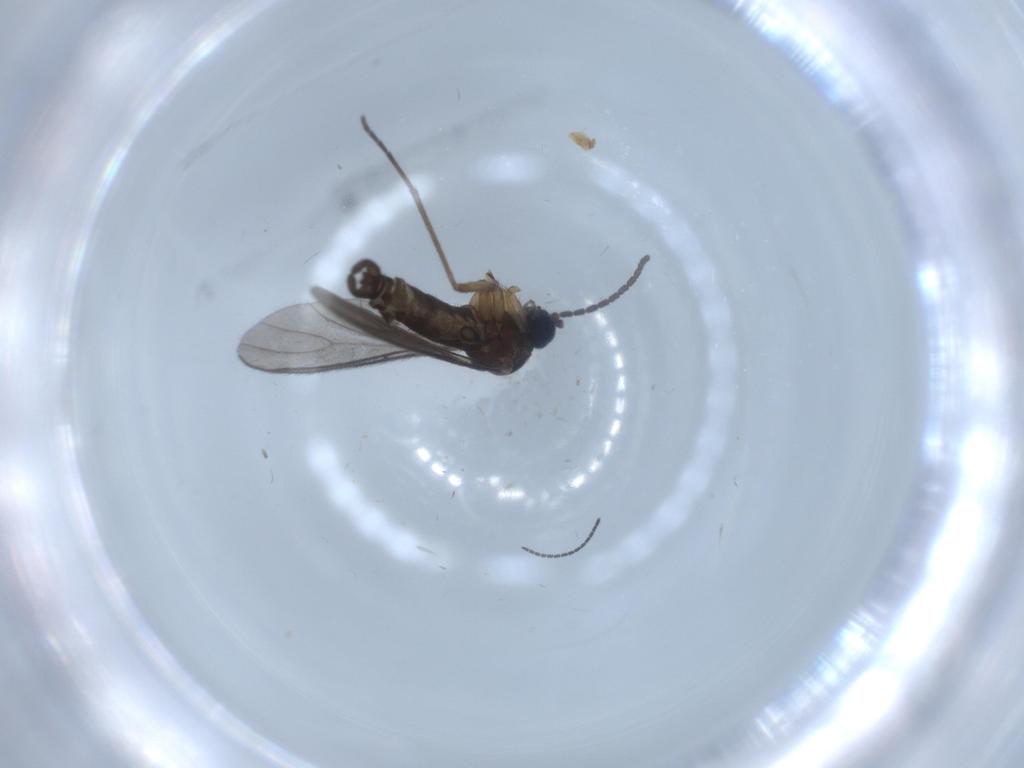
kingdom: Animalia
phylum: Arthropoda
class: Insecta
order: Diptera
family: Sciaridae
